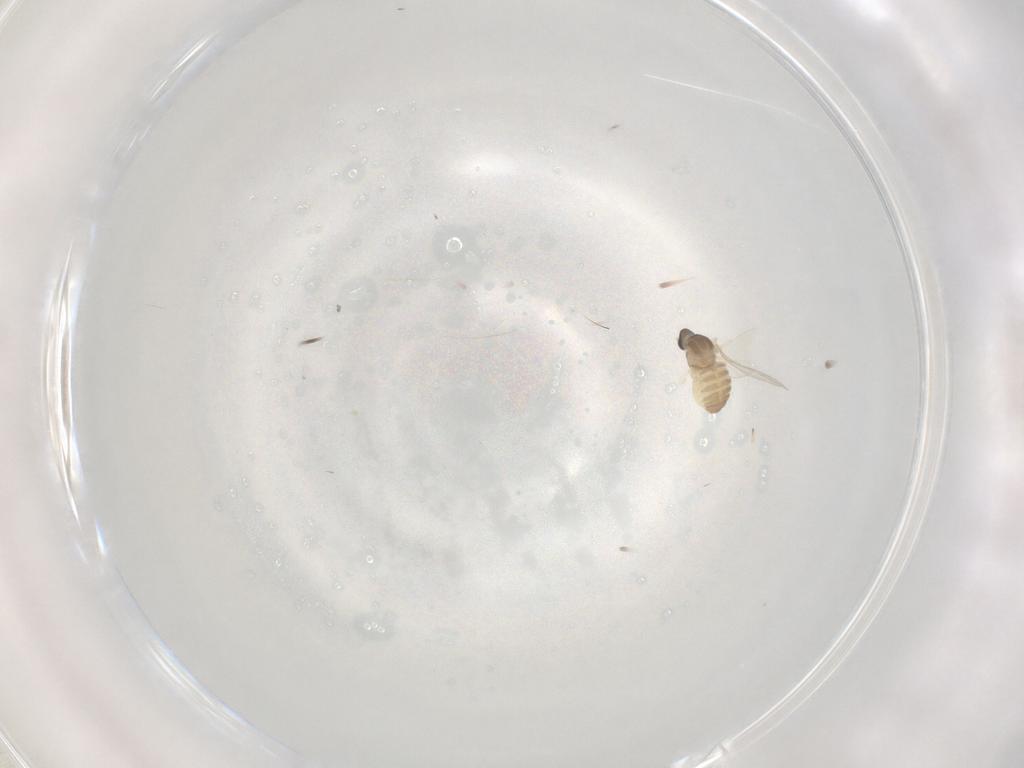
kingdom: Animalia
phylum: Arthropoda
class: Insecta
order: Diptera
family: Cecidomyiidae
